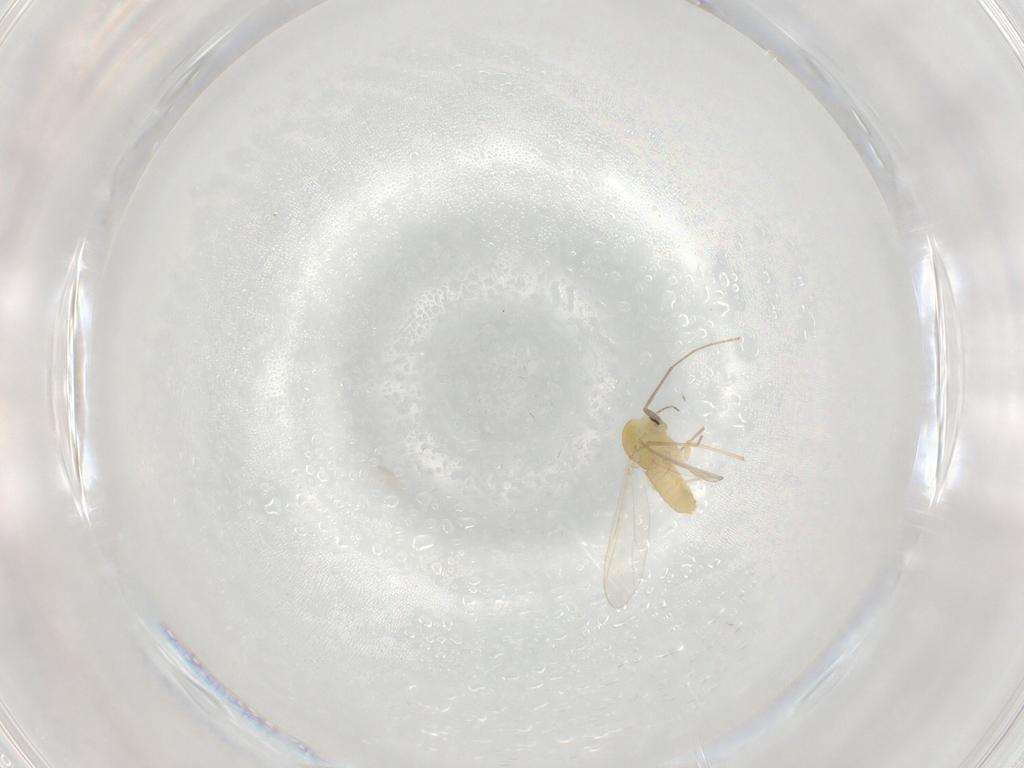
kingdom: Animalia
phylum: Arthropoda
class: Insecta
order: Diptera
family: Chironomidae
